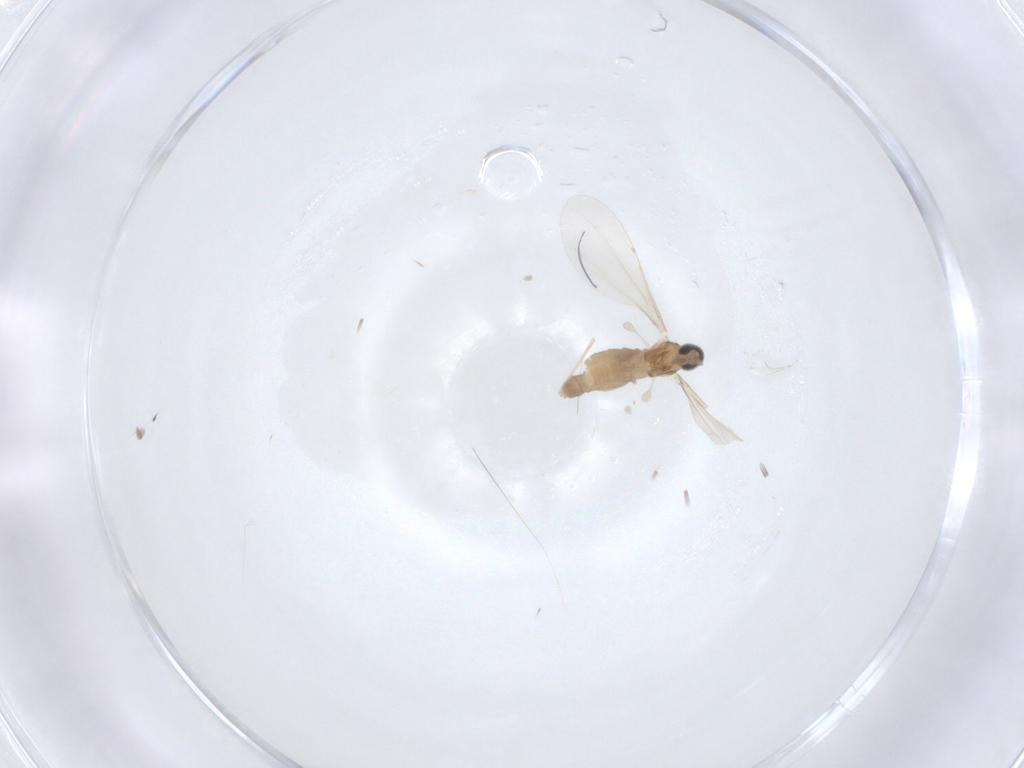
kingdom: Animalia
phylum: Arthropoda
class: Insecta
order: Diptera
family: Cecidomyiidae
